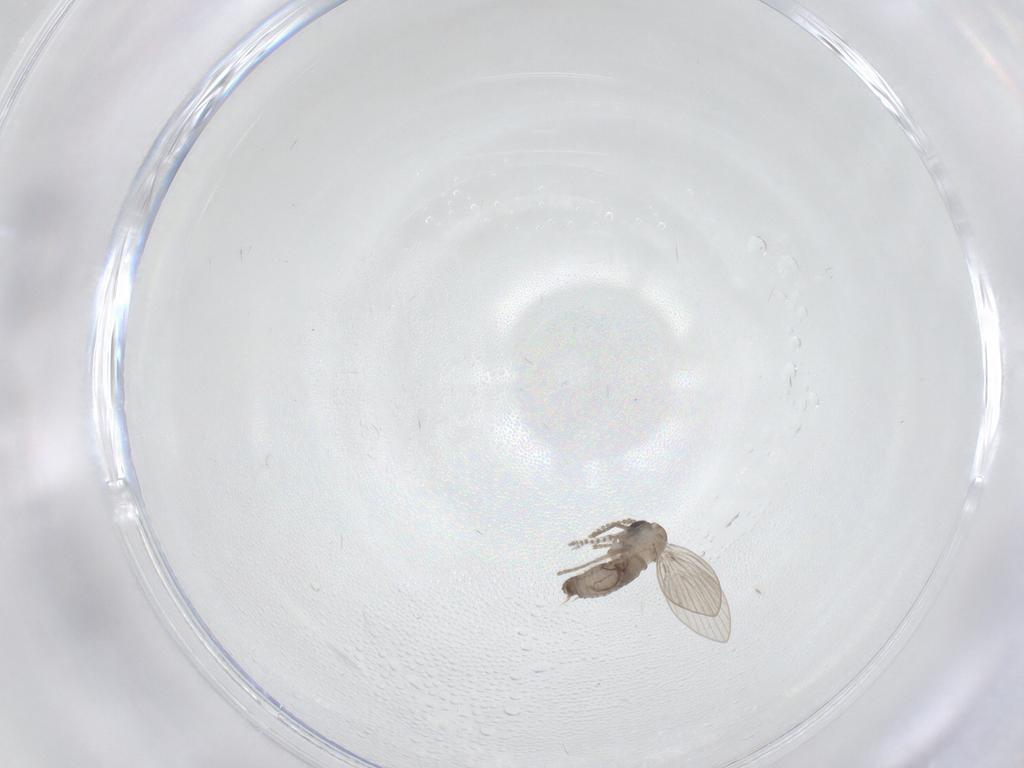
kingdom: Animalia
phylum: Arthropoda
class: Insecta
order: Diptera
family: Psychodidae
